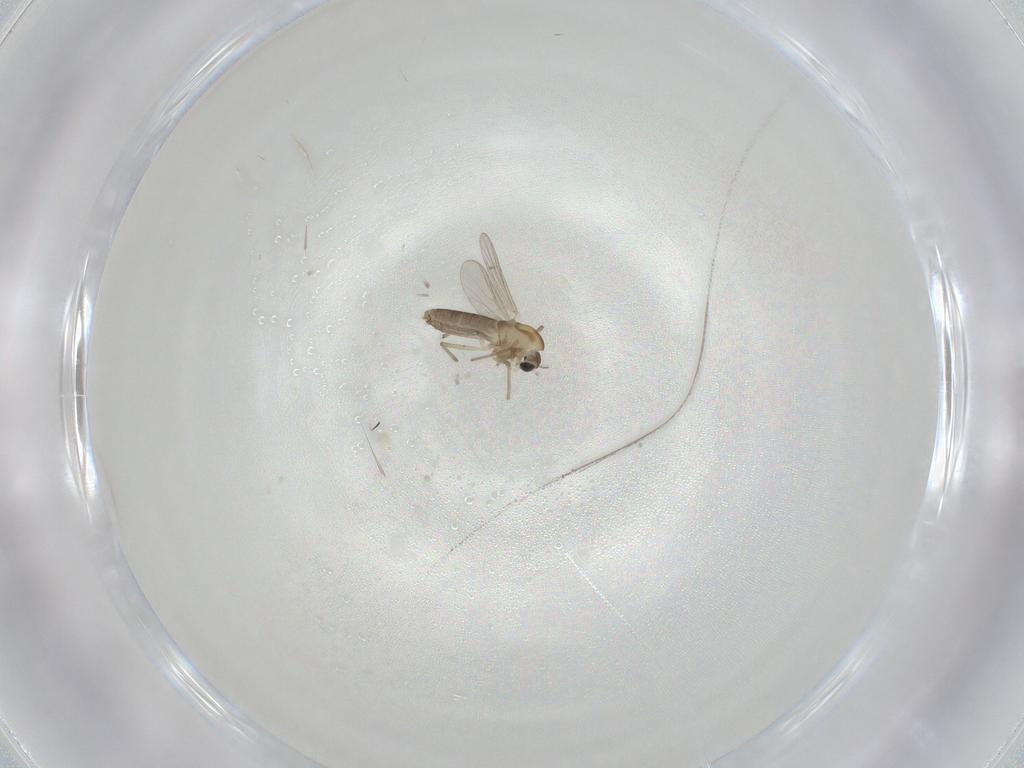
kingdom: Animalia
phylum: Arthropoda
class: Insecta
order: Diptera
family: Chironomidae
